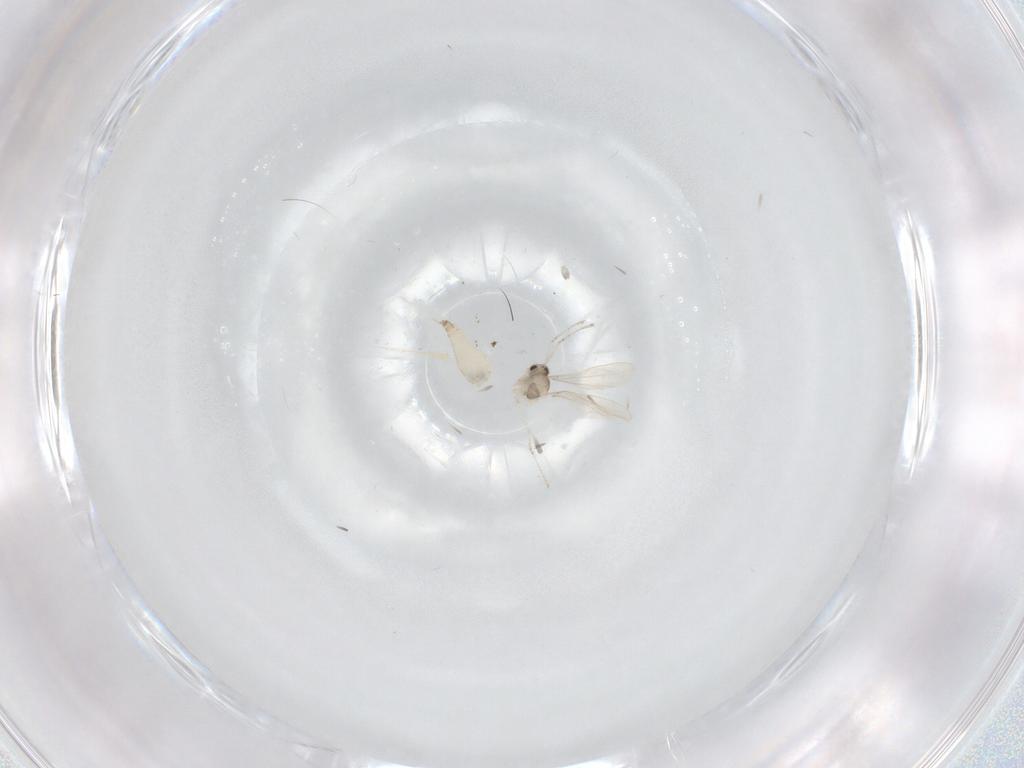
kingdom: Animalia
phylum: Arthropoda
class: Insecta
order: Diptera
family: Cecidomyiidae
